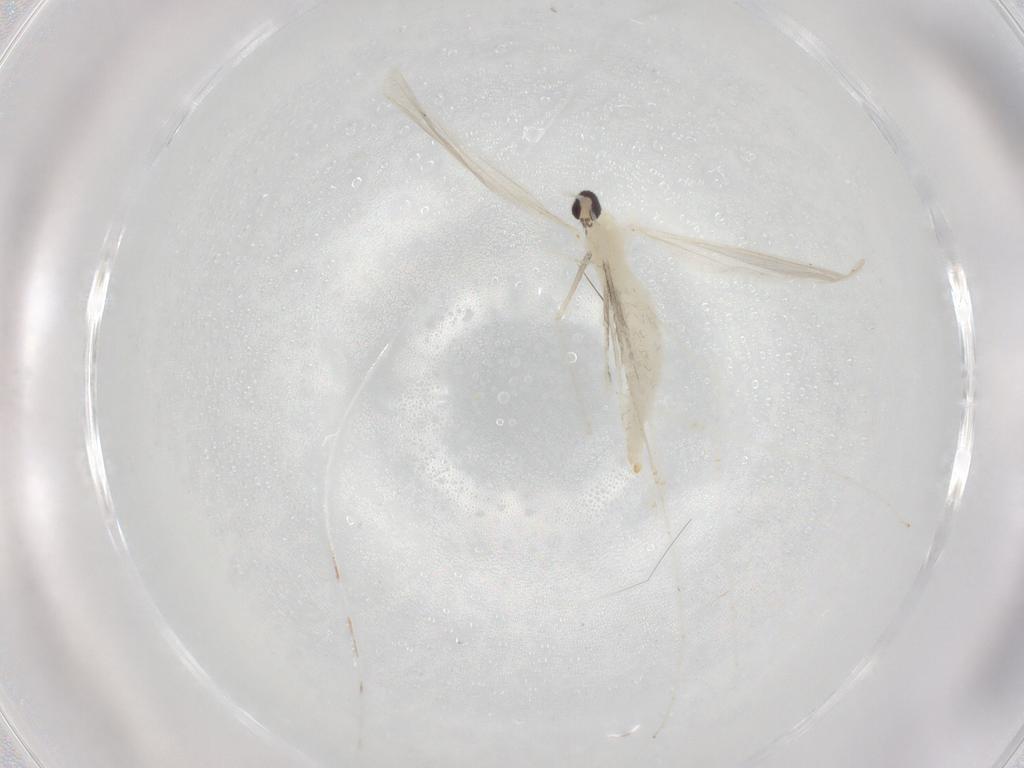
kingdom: Animalia
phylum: Arthropoda
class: Insecta
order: Diptera
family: Cecidomyiidae
